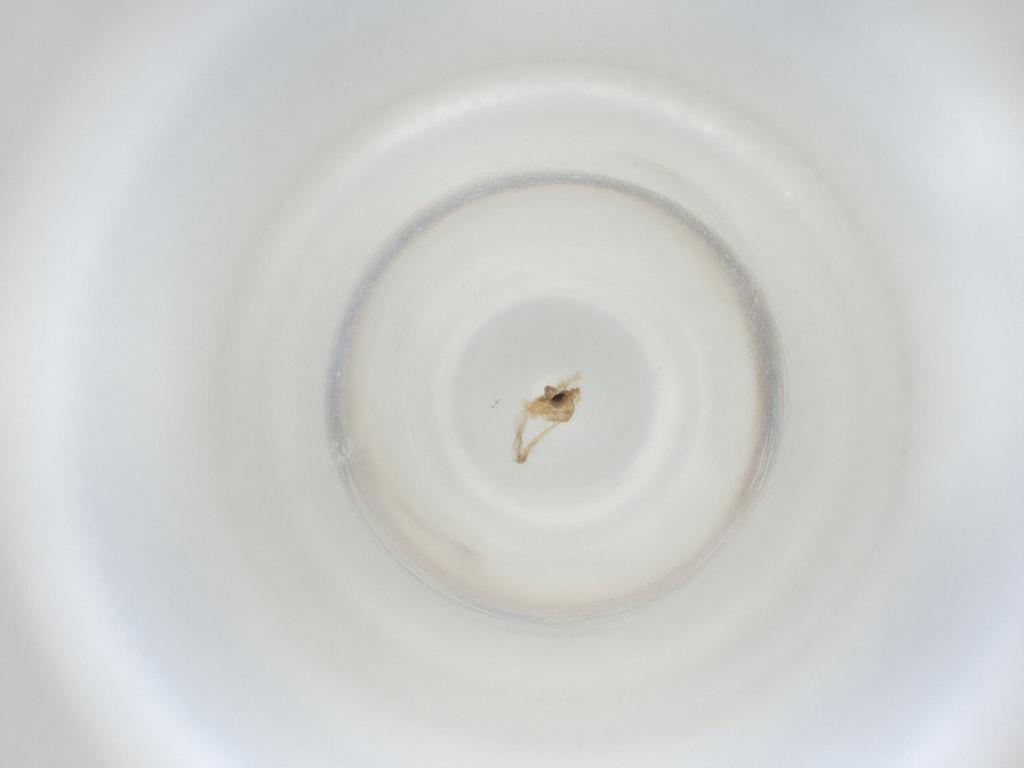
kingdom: Animalia
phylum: Arthropoda
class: Insecta
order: Diptera
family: Cecidomyiidae
